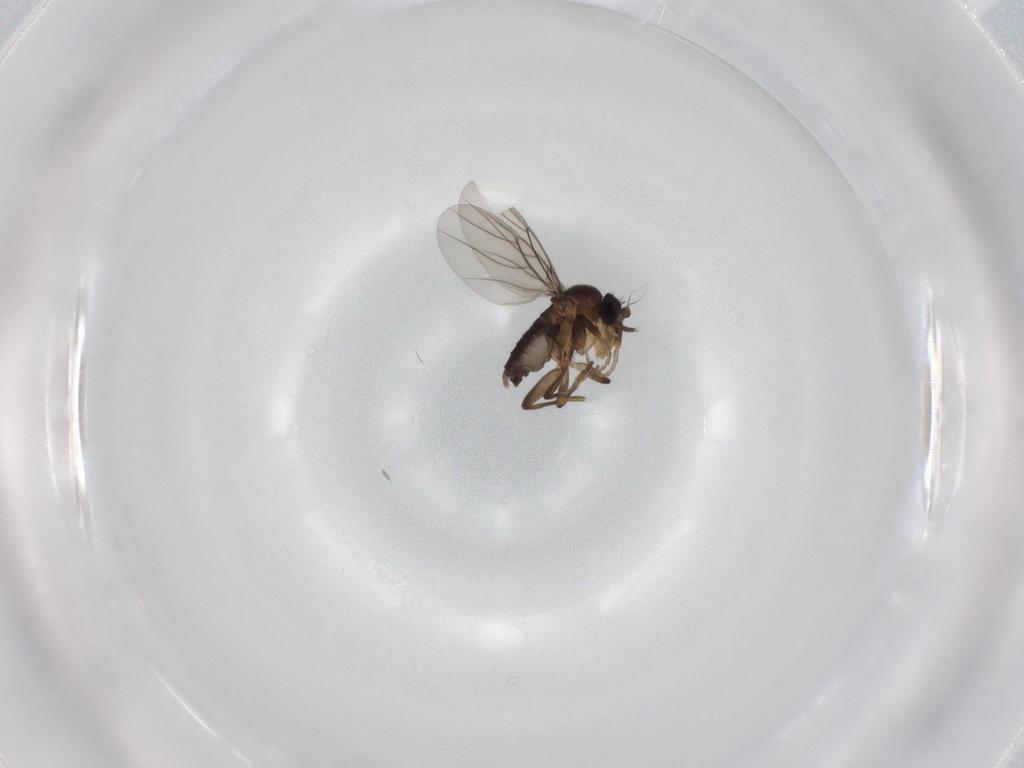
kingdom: Animalia
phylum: Arthropoda
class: Insecta
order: Diptera
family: Phoridae
